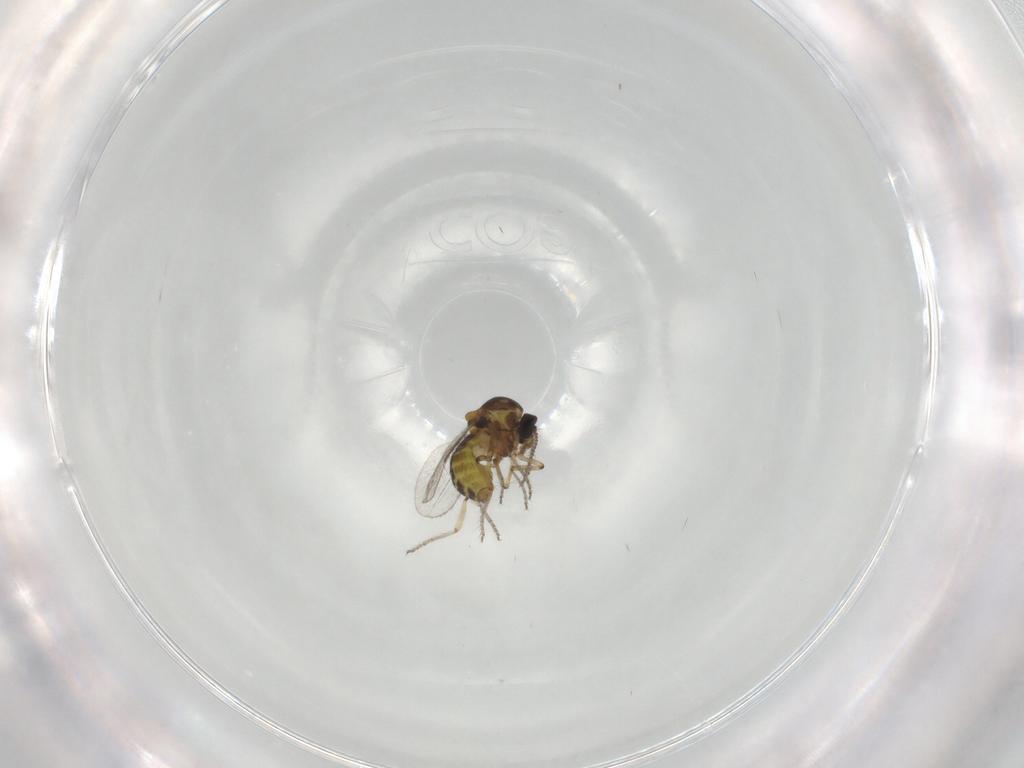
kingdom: Animalia
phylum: Arthropoda
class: Insecta
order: Diptera
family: Ceratopogonidae
